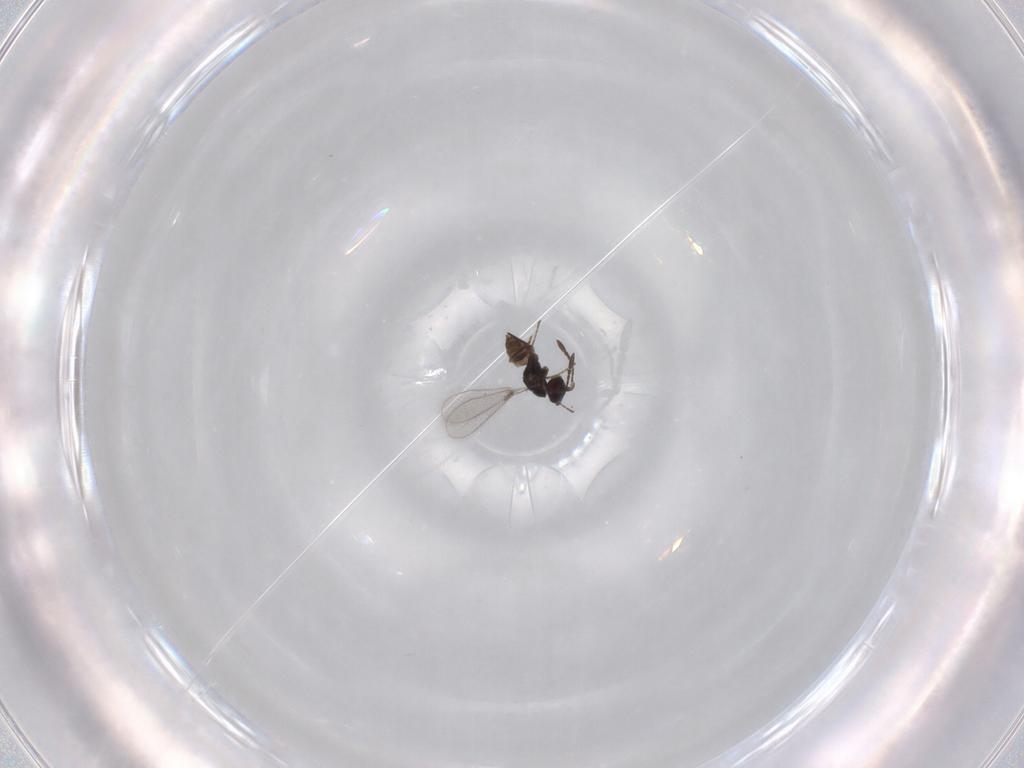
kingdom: Animalia
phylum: Arthropoda
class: Insecta
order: Hymenoptera
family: Mymaridae
